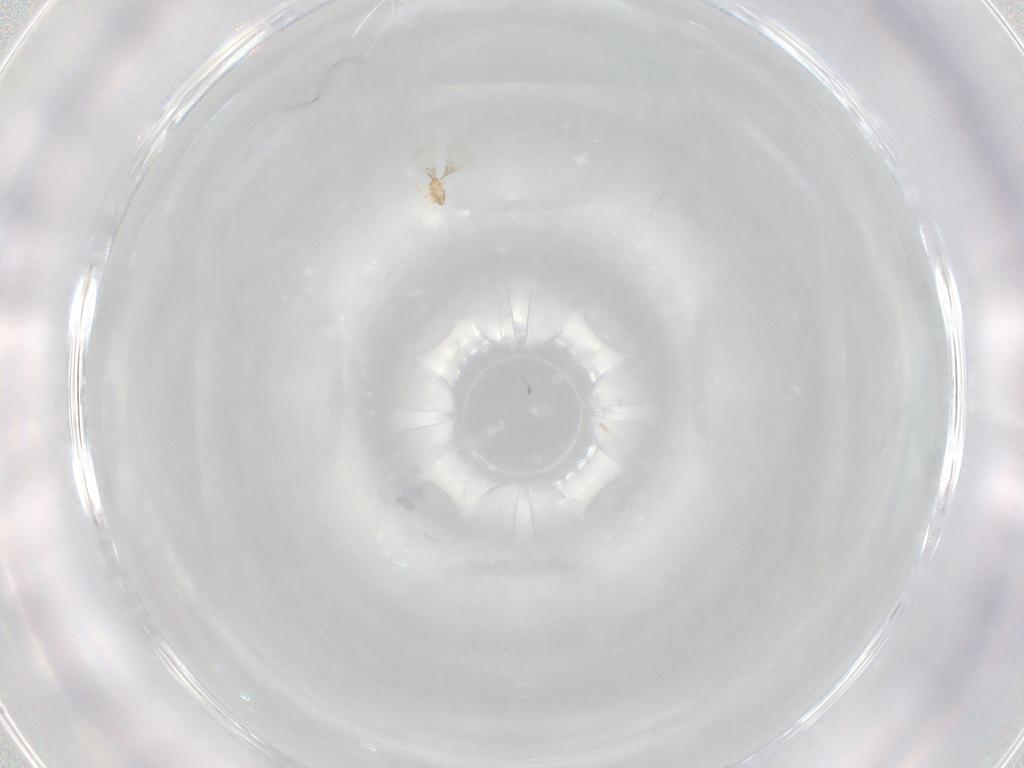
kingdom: Animalia
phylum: Arthropoda
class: Insecta
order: Hymenoptera
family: Trichogrammatidae
